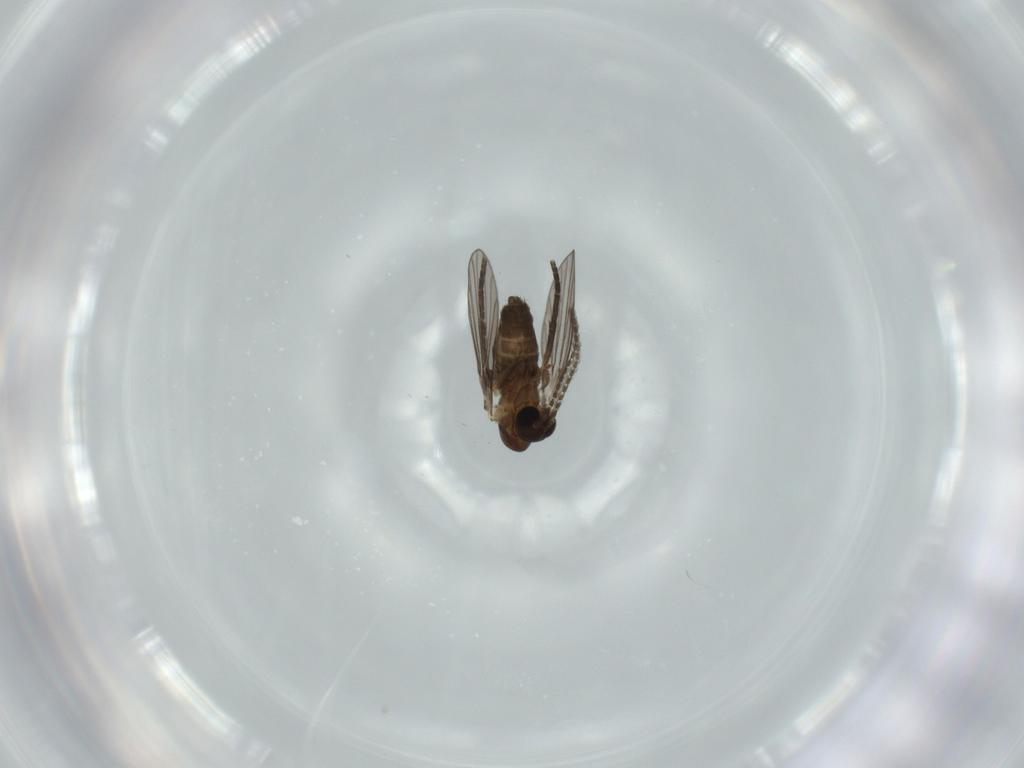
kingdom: Animalia
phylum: Arthropoda
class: Insecta
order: Diptera
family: Psychodidae
